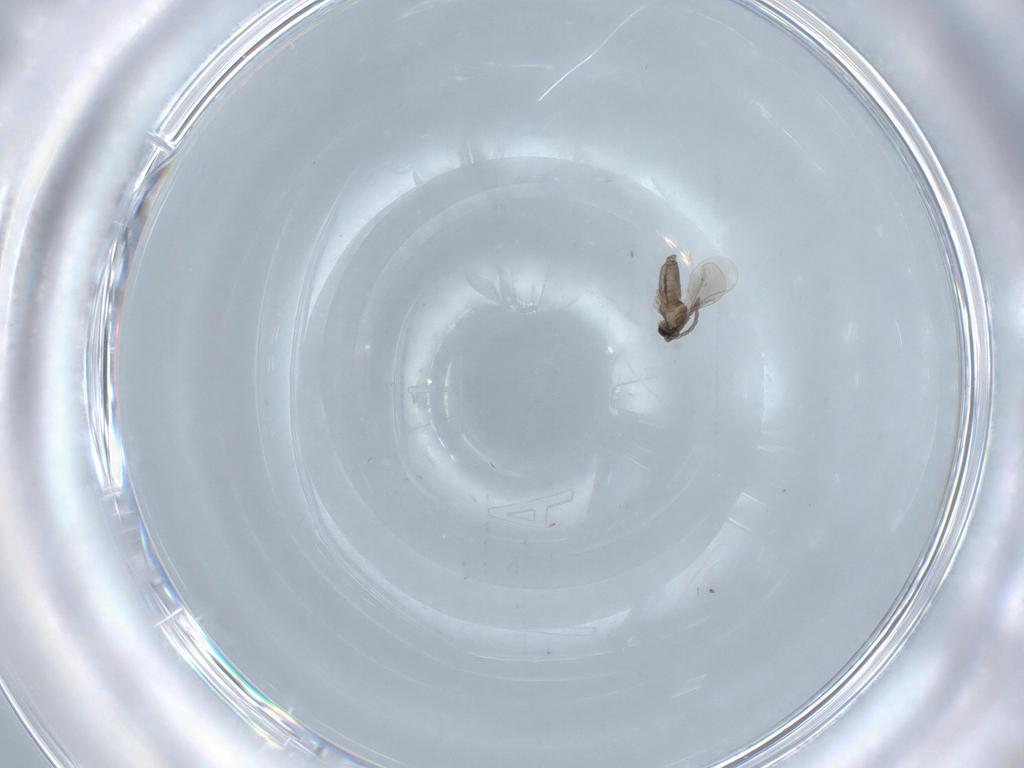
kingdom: Animalia
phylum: Arthropoda
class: Insecta
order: Diptera
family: Cecidomyiidae
